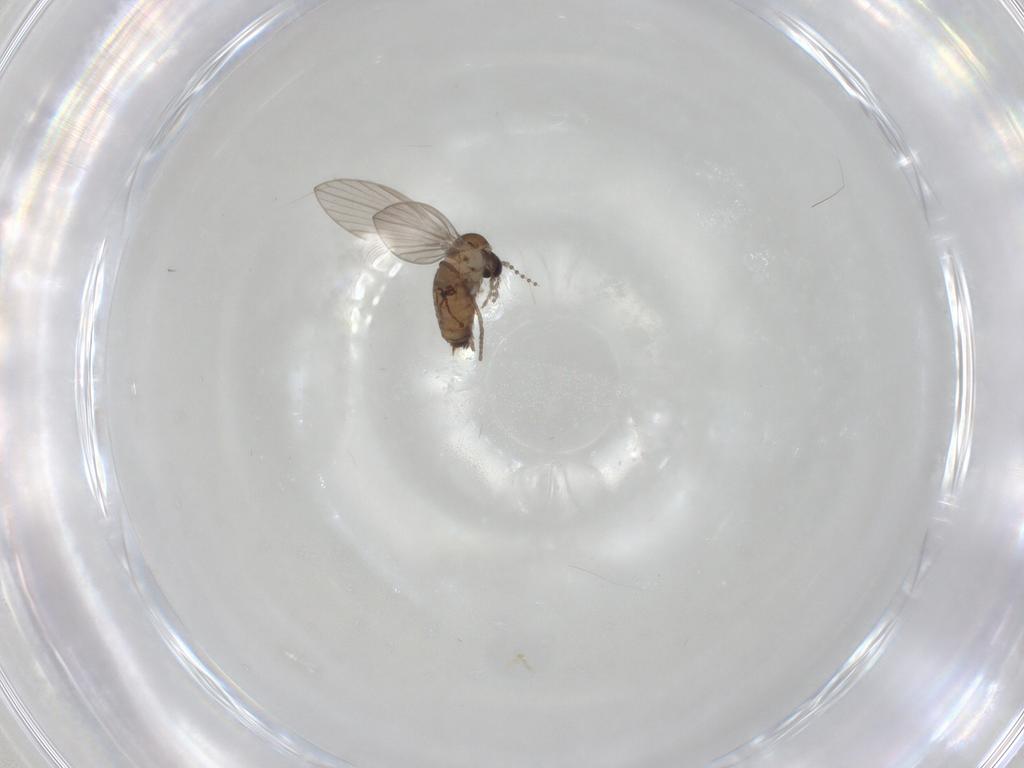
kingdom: Animalia
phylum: Arthropoda
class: Insecta
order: Diptera
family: Psychodidae
